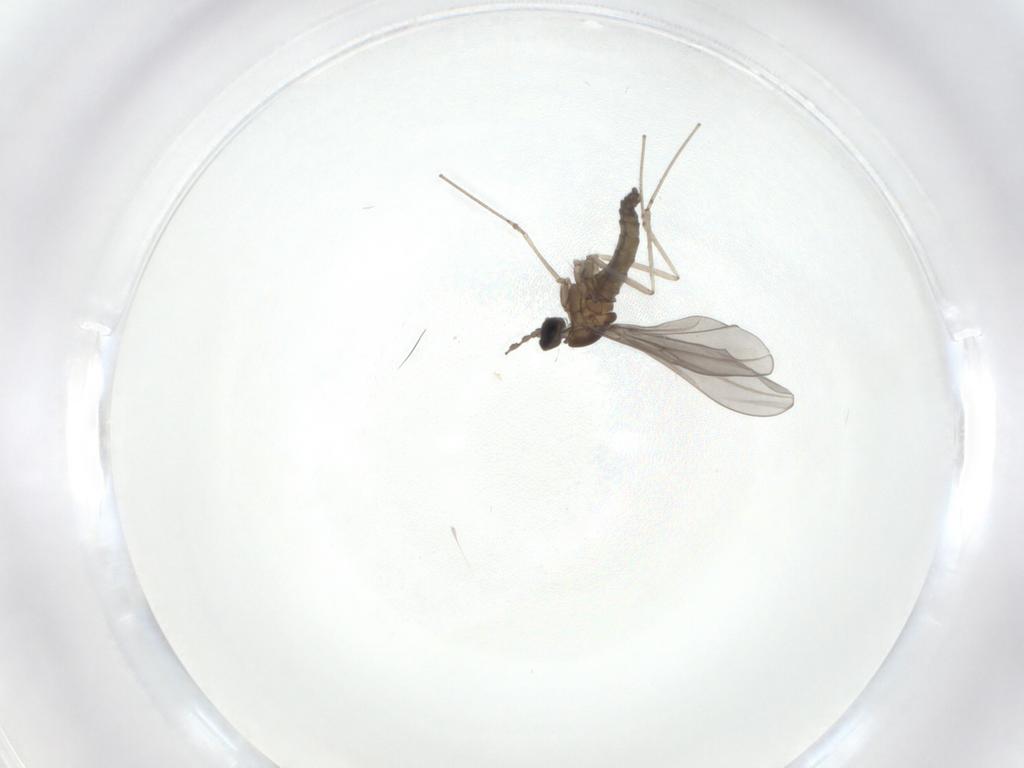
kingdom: Animalia
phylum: Arthropoda
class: Insecta
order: Diptera
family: Cecidomyiidae
